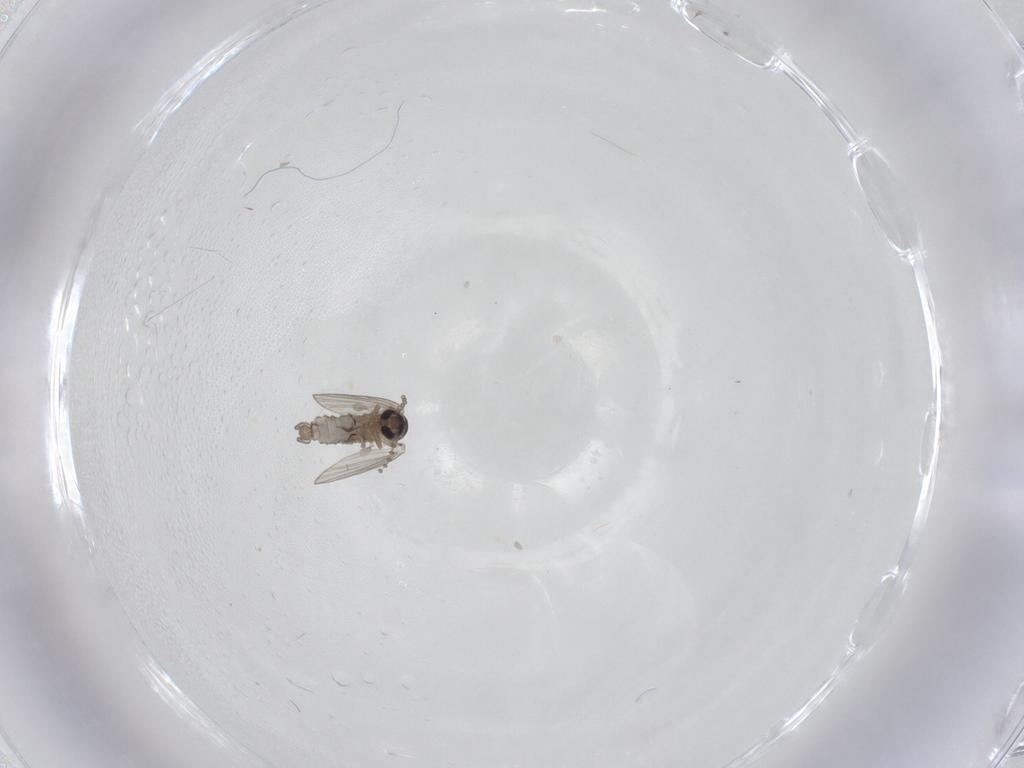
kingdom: Animalia
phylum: Arthropoda
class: Insecta
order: Diptera
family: Psychodidae
